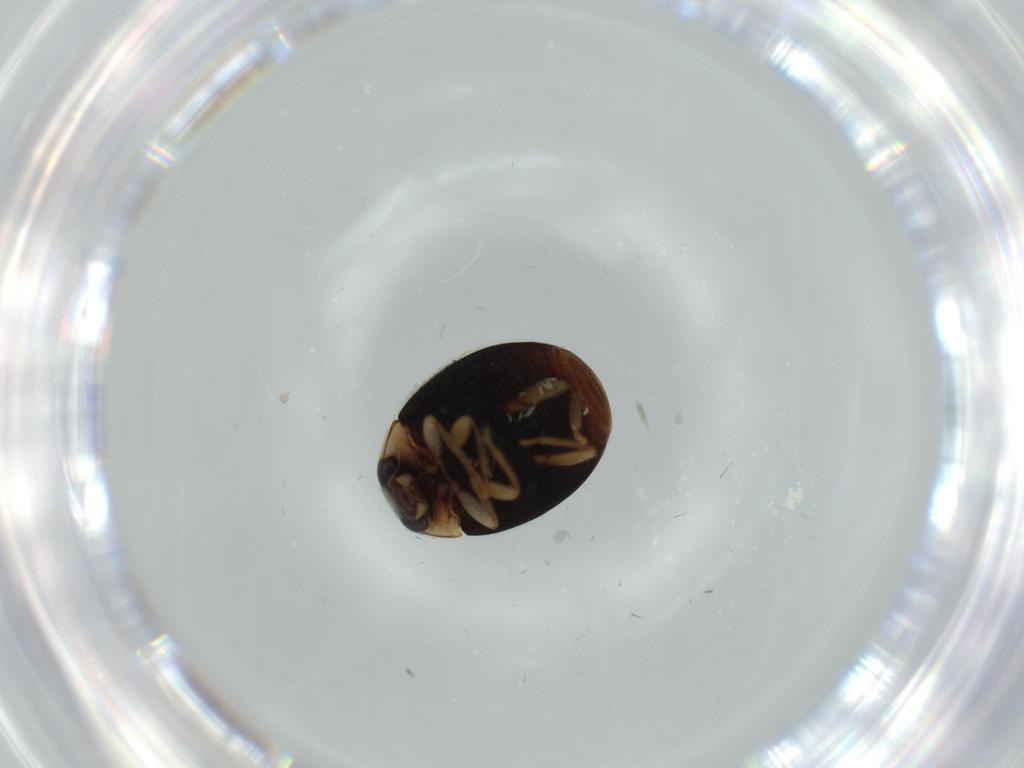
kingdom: Animalia
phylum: Arthropoda
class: Insecta
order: Coleoptera
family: Coccinellidae
